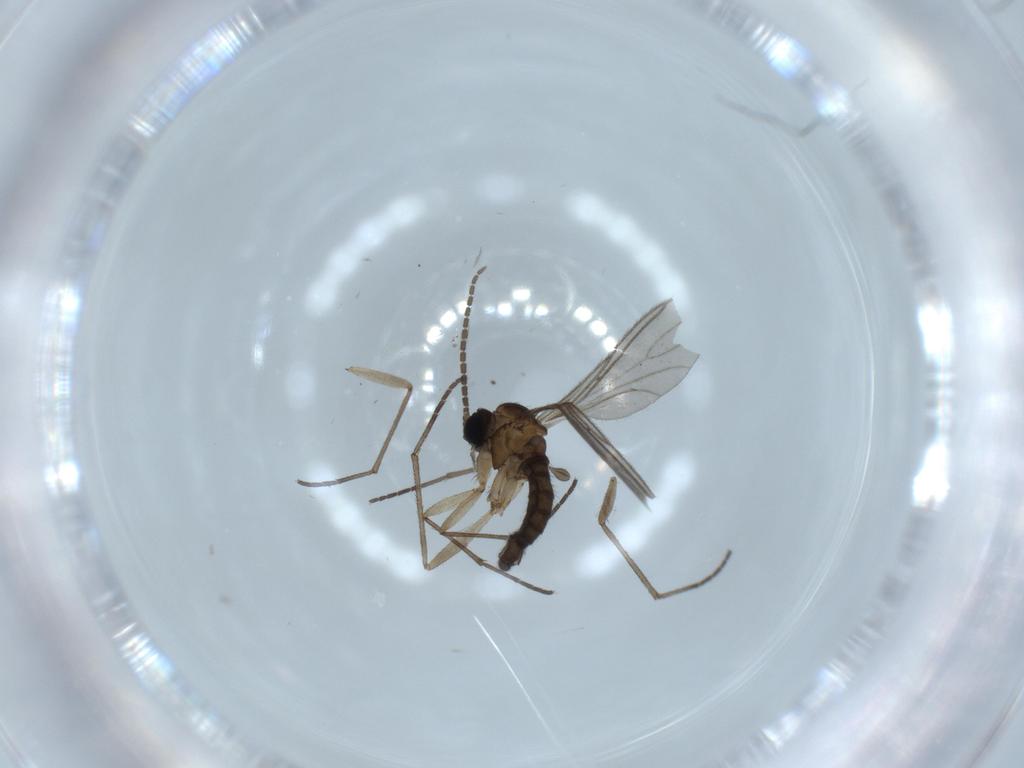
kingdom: Animalia
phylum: Arthropoda
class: Insecta
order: Diptera
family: Sciaridae
